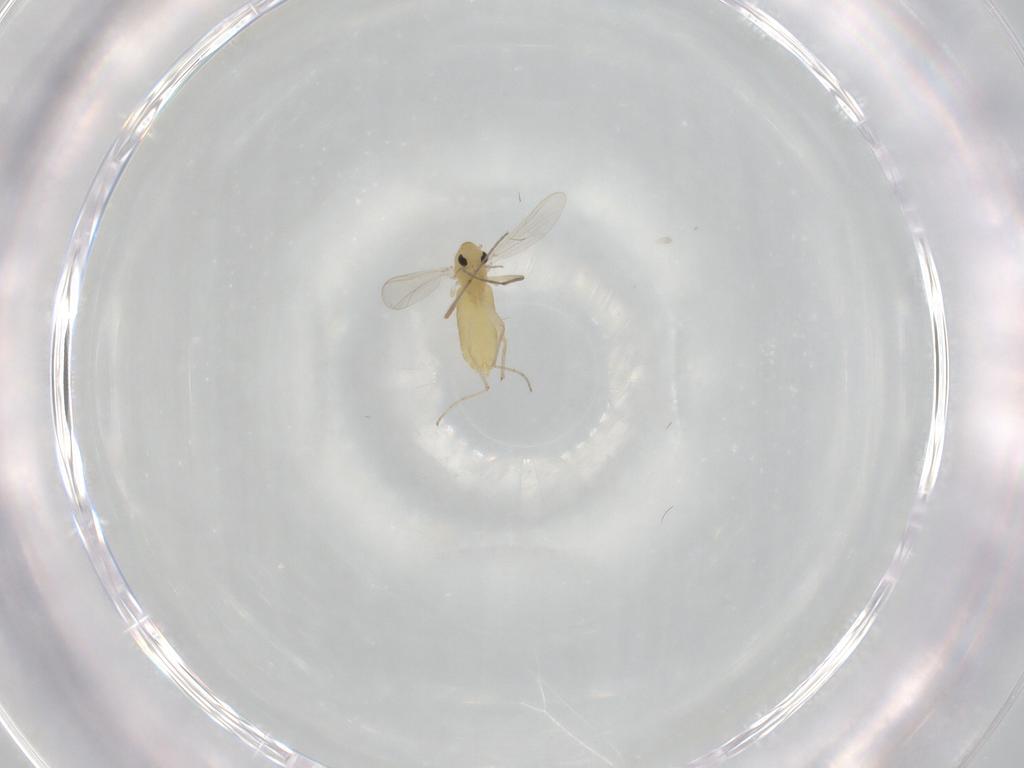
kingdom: Animalia
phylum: Arthropoda
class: Insecta
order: Diptera
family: Chironomidae
